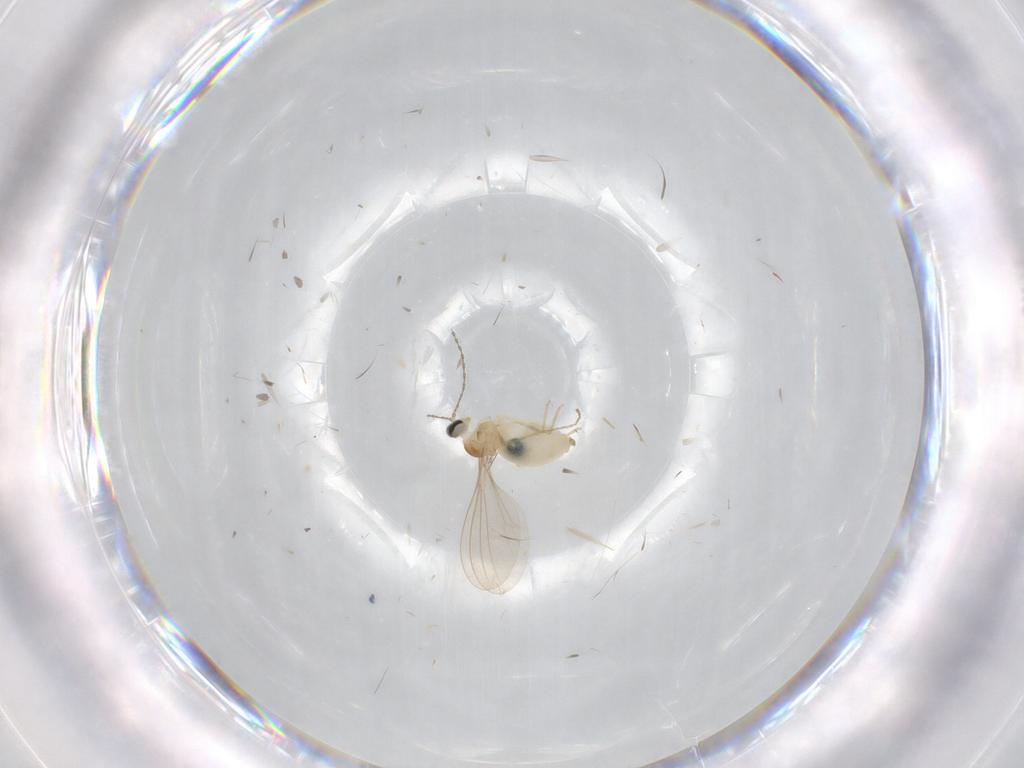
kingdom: Animalia
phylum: Arthropoda
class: Insecta
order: Diptera
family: Cecidomyiidae
